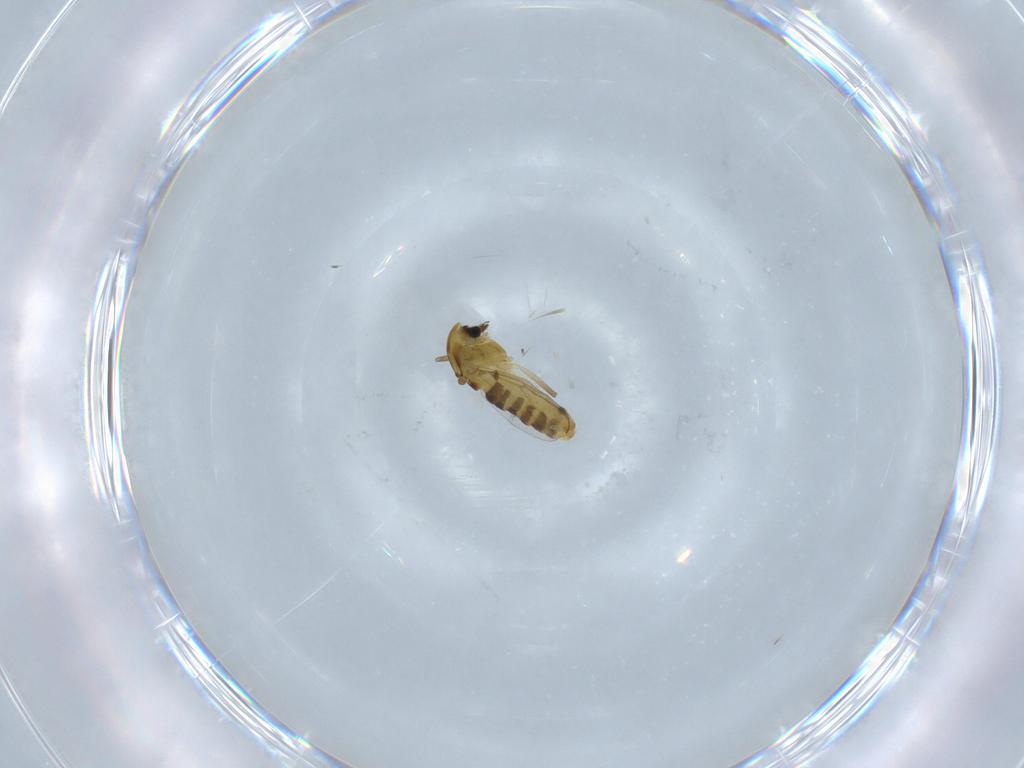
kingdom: Animalia
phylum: Arthropoda
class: Insecta
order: Diptera
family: Chironomidae
